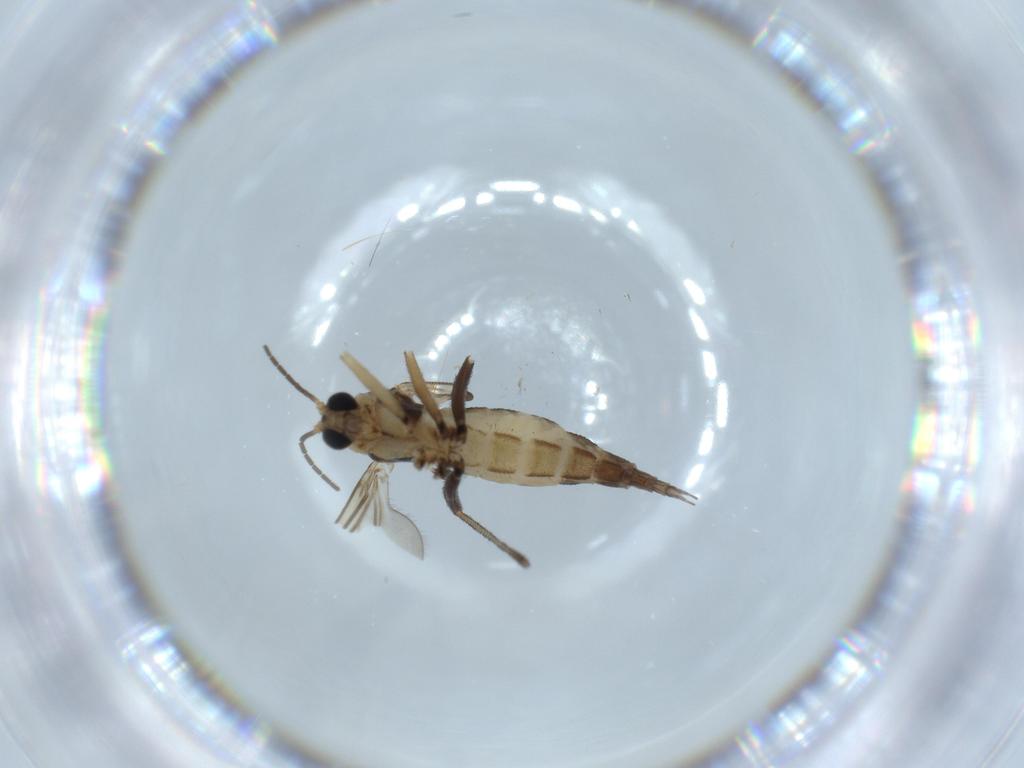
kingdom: Animalia
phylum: Arthropoda
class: Insecta
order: Diptera
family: Sciaridae
